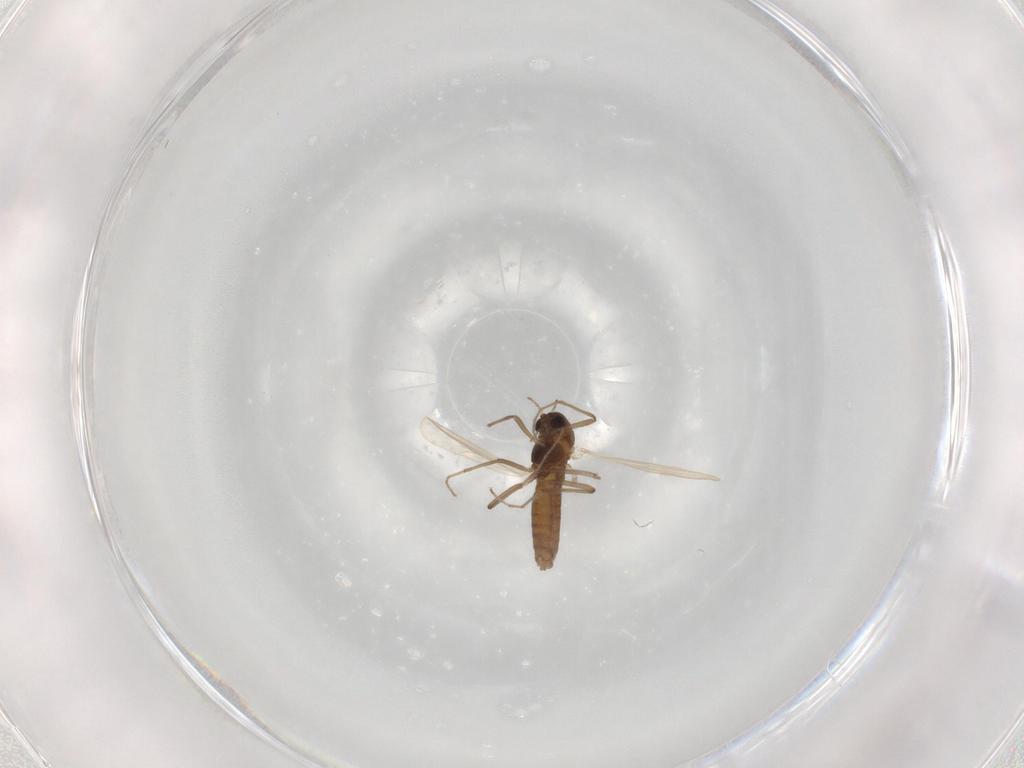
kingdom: Animalia
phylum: Arthropoda
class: Insecta
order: Diptera
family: Chironomidae
